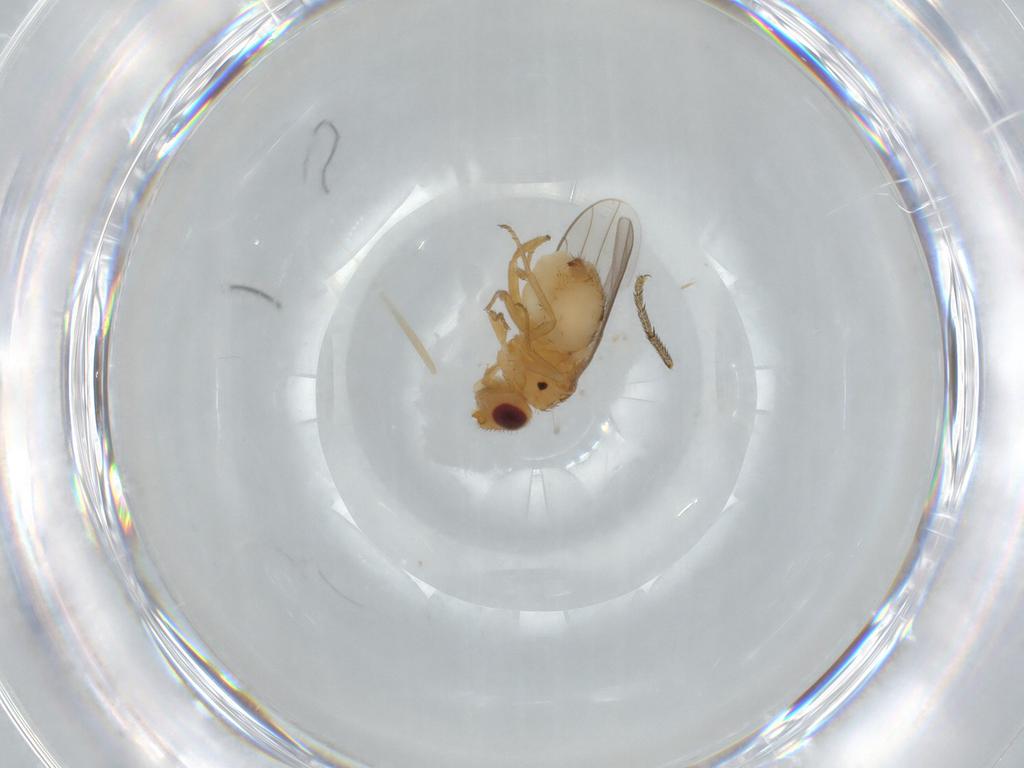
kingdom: Animalia
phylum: Arthropoda
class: Insecta
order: Diptera
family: Chloropidae
